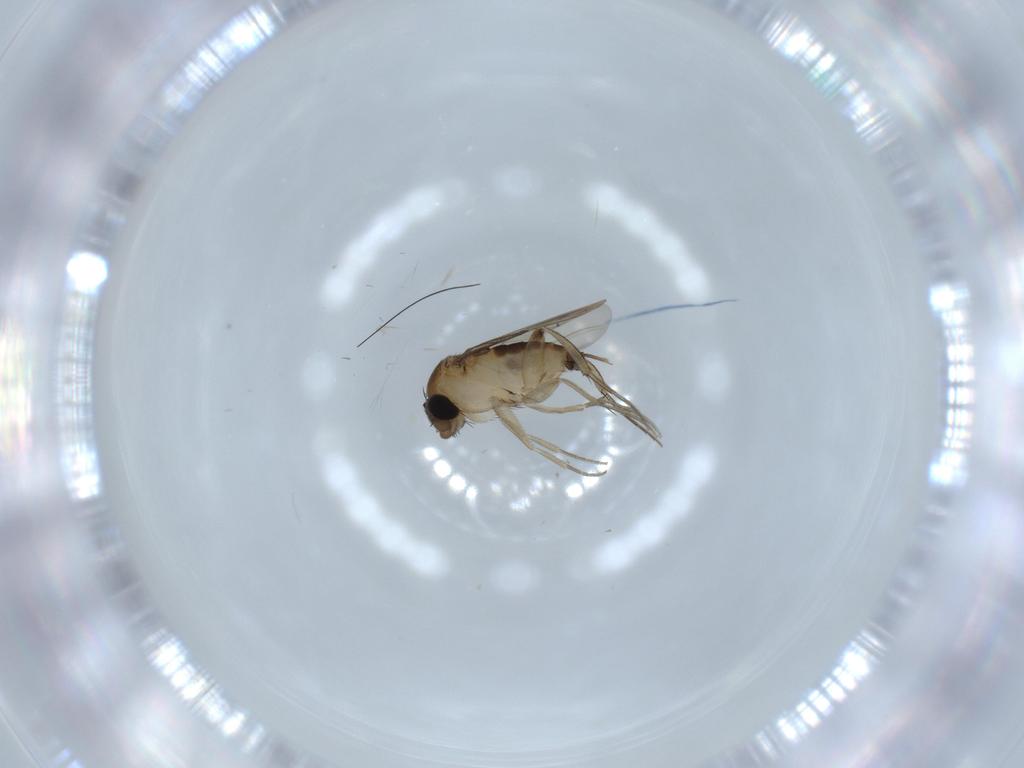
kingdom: Animalia
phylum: Arthropoda
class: Insecta
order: Diptera
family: Phoridae
